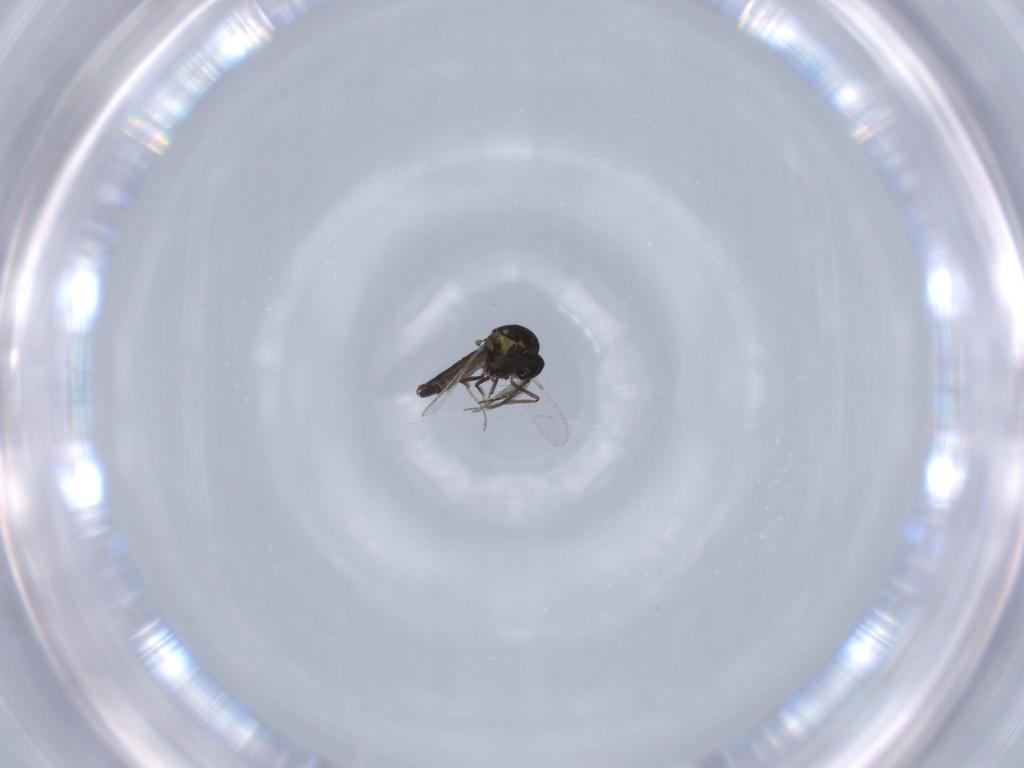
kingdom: Animalia
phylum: Arthropoda
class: Insecta
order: Diptera
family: Ceratopogonidae
